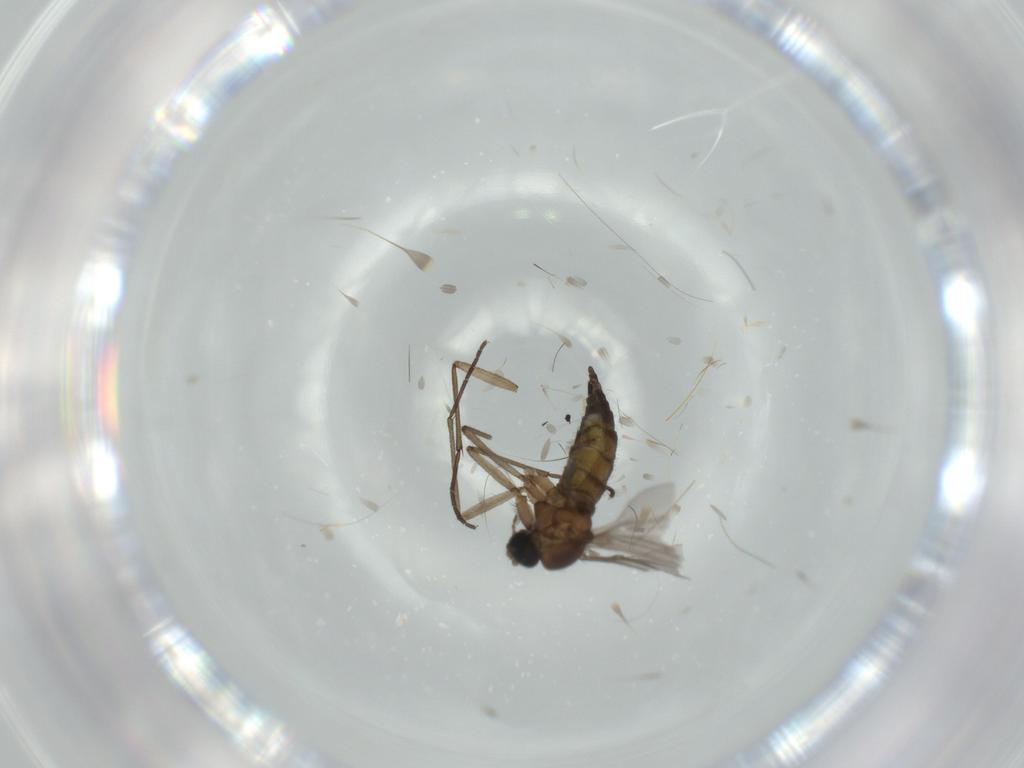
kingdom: Animalia
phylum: Arthropoda
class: Insecta
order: Diptera
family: Sciaridae
